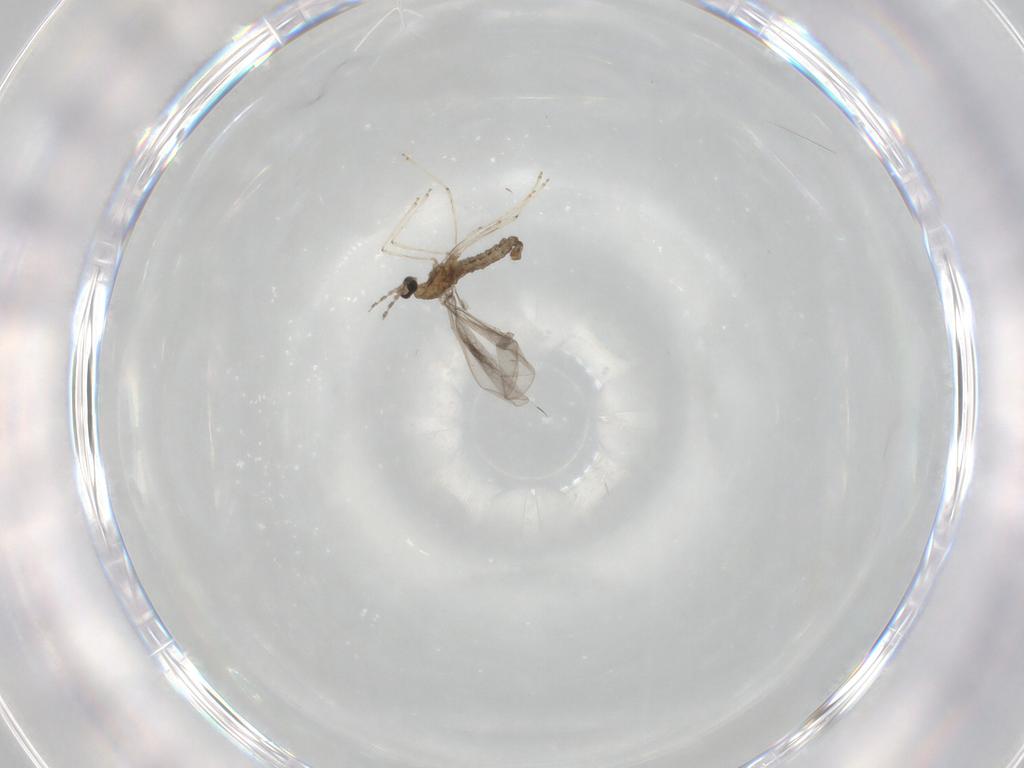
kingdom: Animalia
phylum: Arthropoda
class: Insecta
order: Diptera
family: Cecidomyiidae
